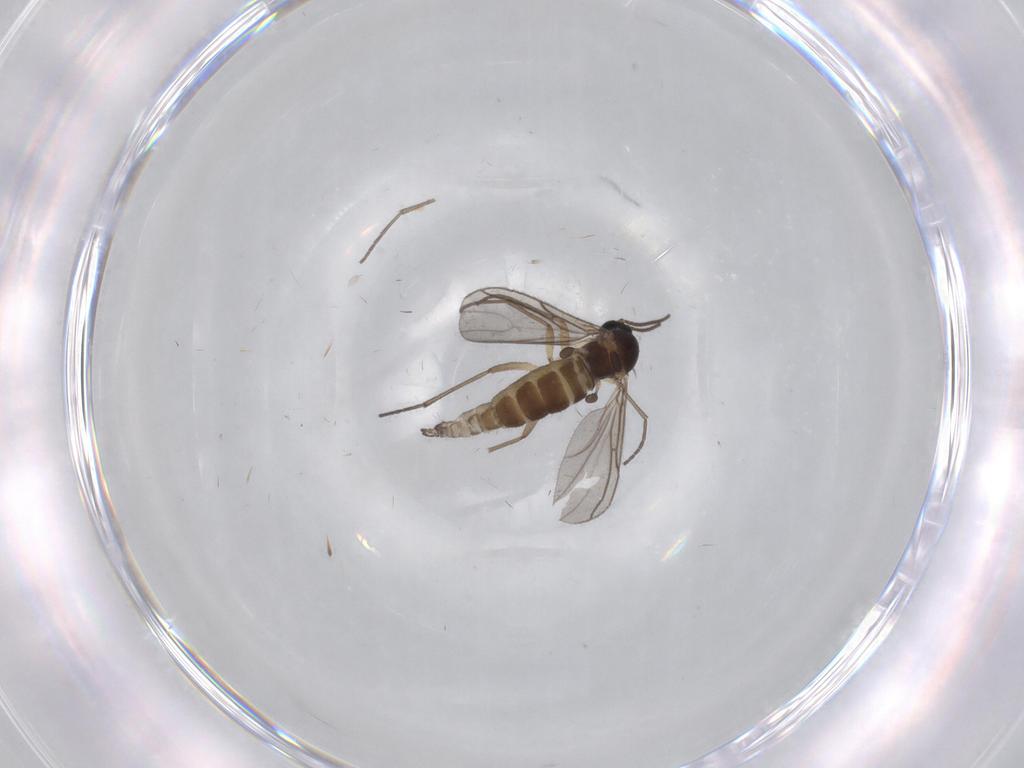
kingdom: Animalia
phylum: Arthropoda
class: Insecta
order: Diptera
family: Sciaridae
